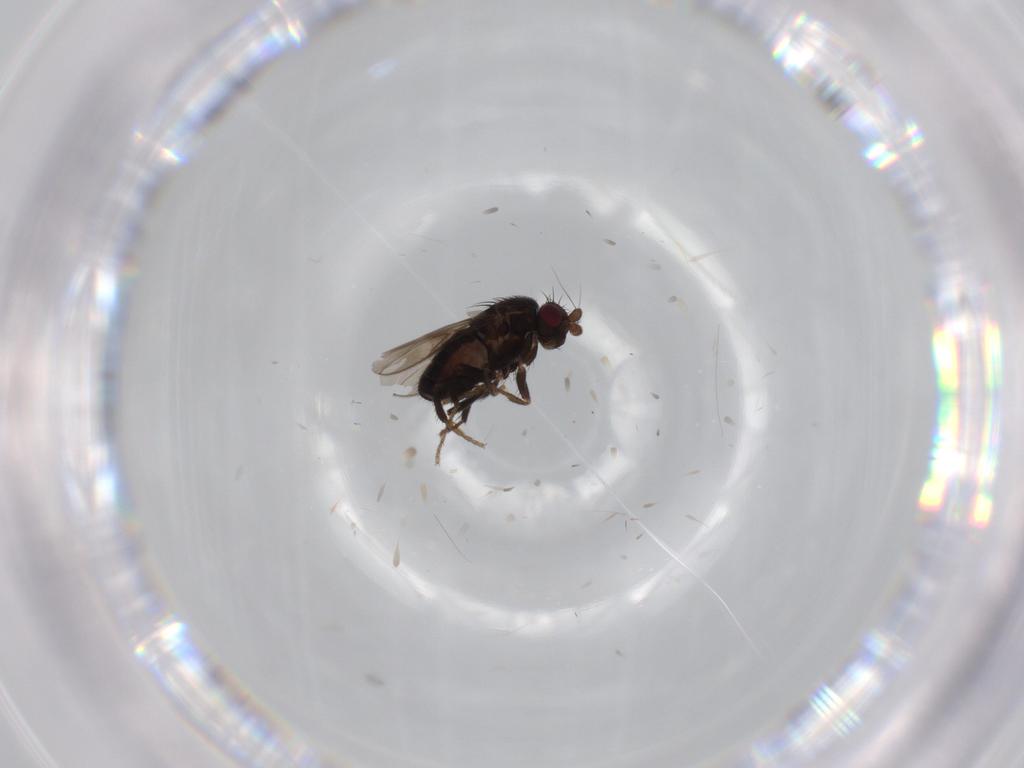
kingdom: Animalia
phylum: Arthropoda
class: Insecta
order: Diptera
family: Sphaeroceridae
